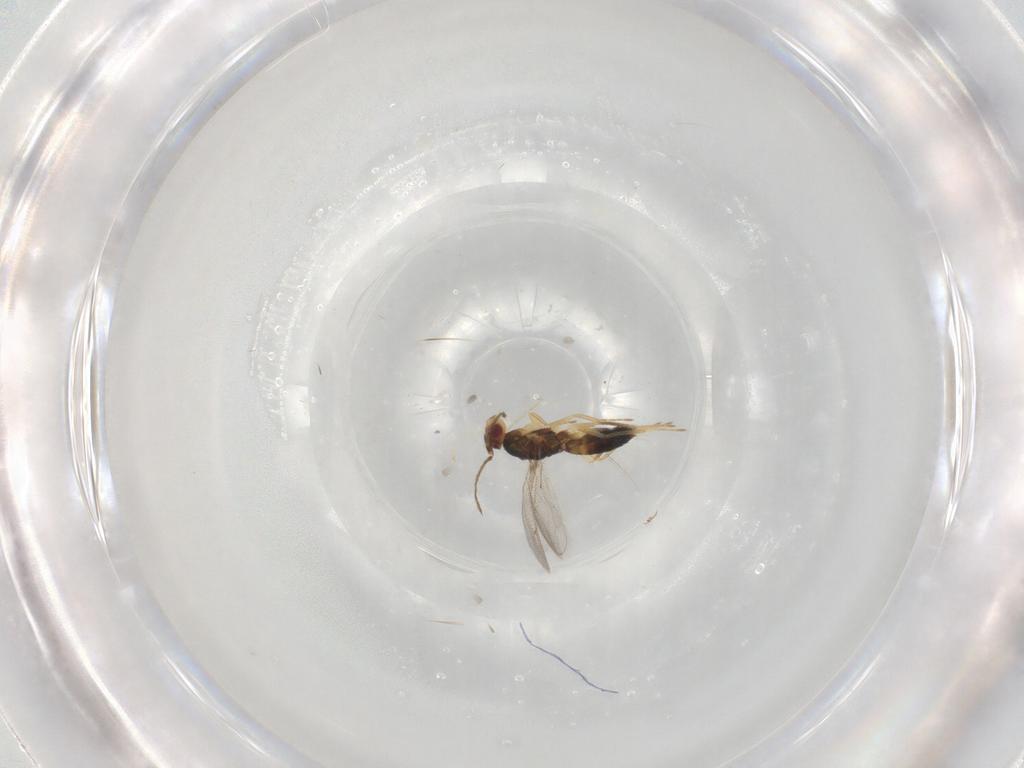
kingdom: Animalia
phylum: Arthropoda
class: Insecta
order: Hymenoptera
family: Eulophidae
